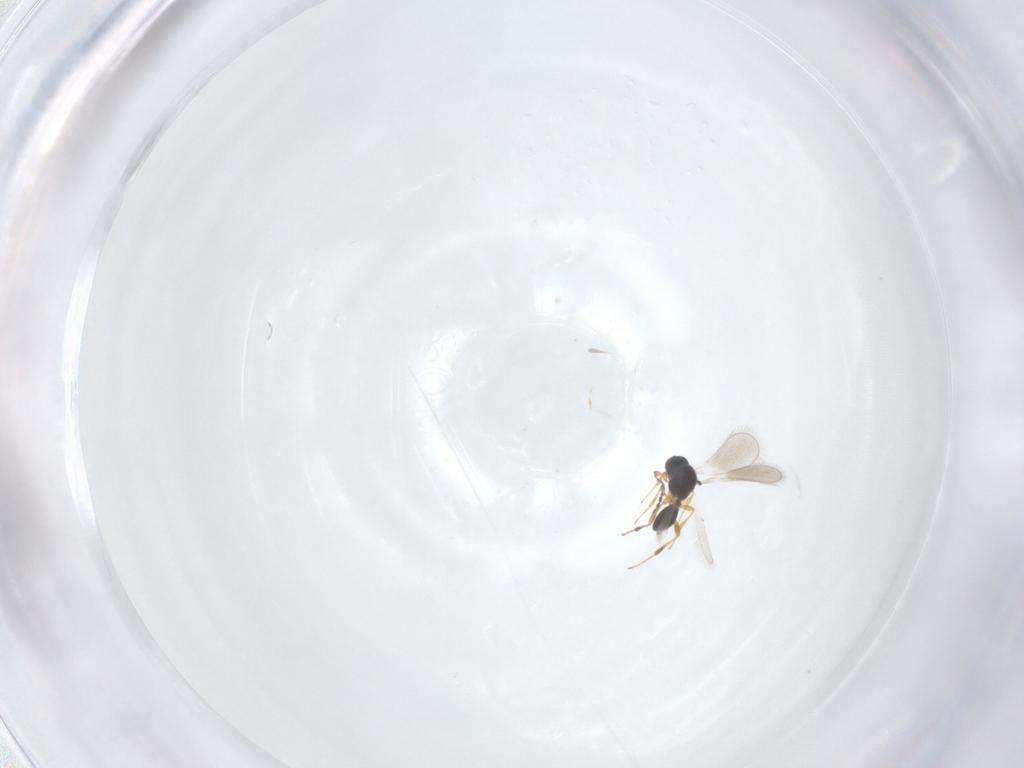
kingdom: Animalia
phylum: Arthropoda
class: Insecta
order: Hymenoptera
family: Platygastridae
